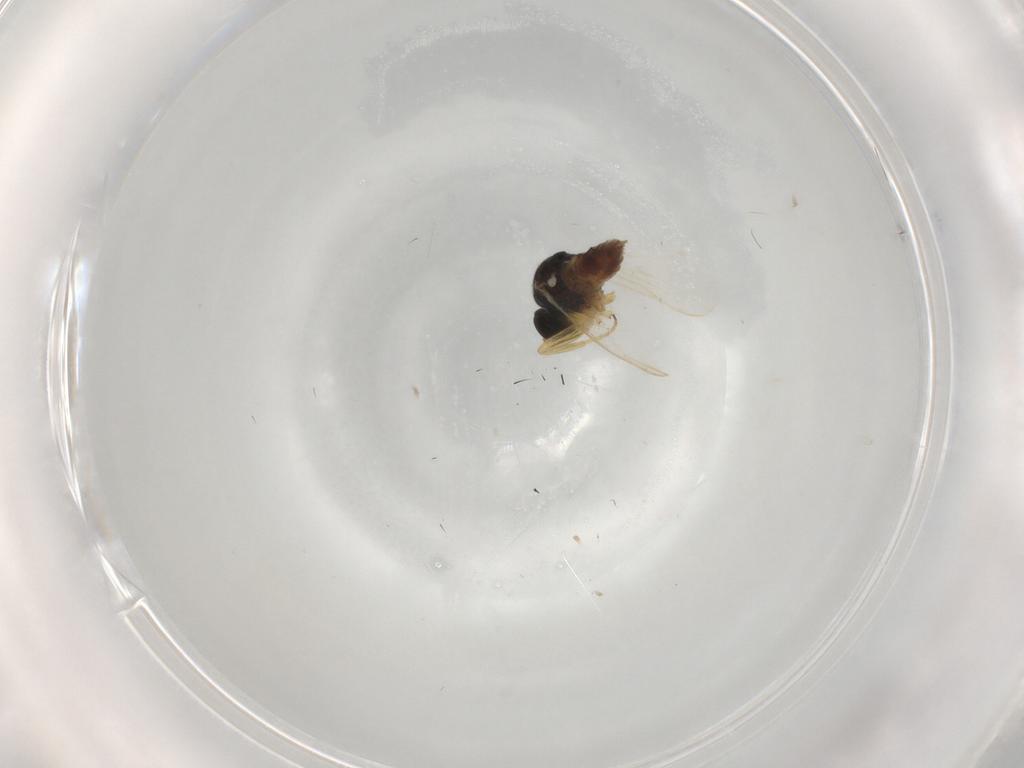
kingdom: Animalia
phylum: Arthropoda
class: Insecta
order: Diptera
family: Hybotidae
